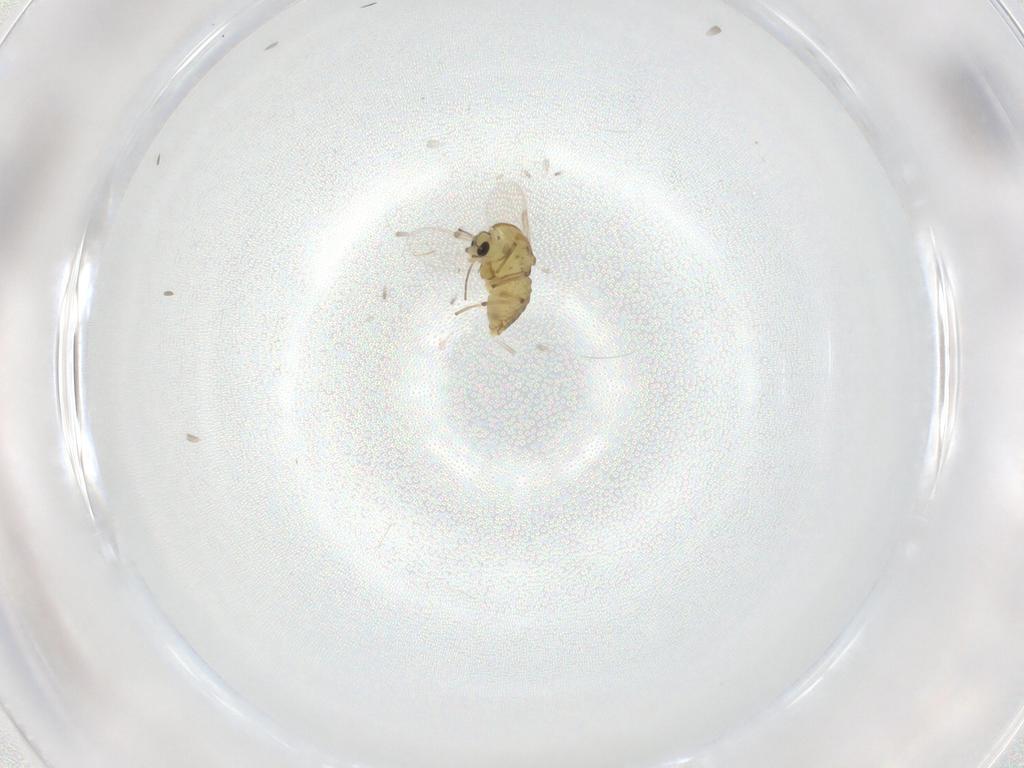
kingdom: Animalia
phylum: Arthropoda
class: Insecta
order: Diptera
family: Chironomidae
